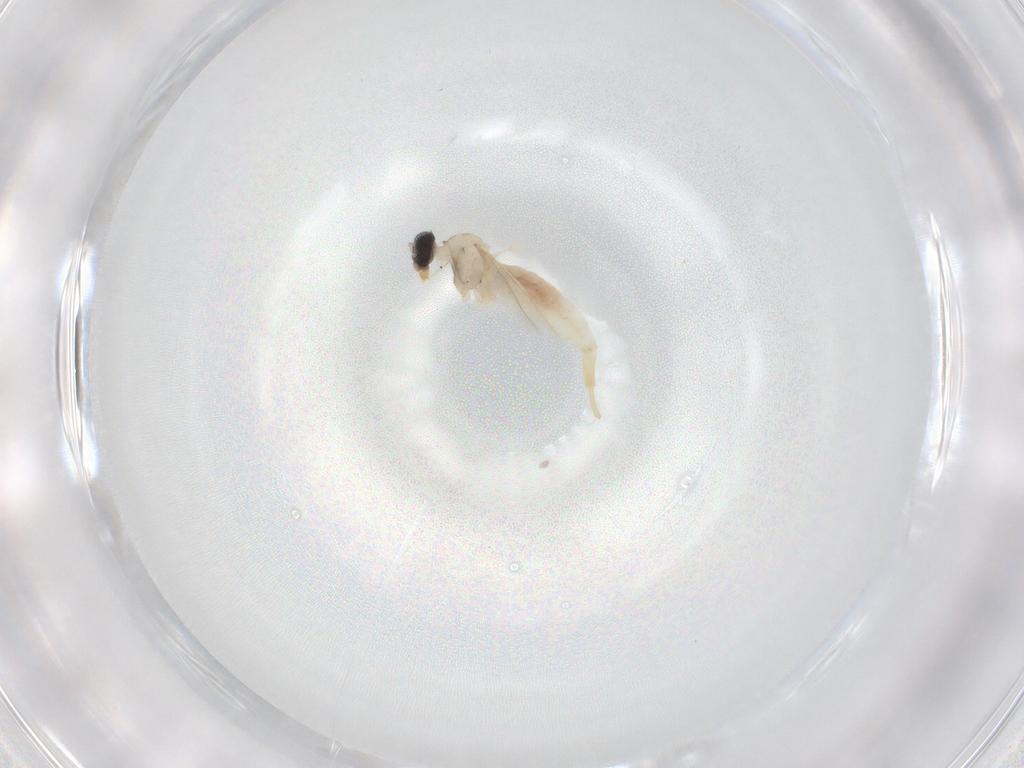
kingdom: Animalia
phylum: Arthropoda
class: Insecta
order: Diptera
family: Cecidomyiidae
